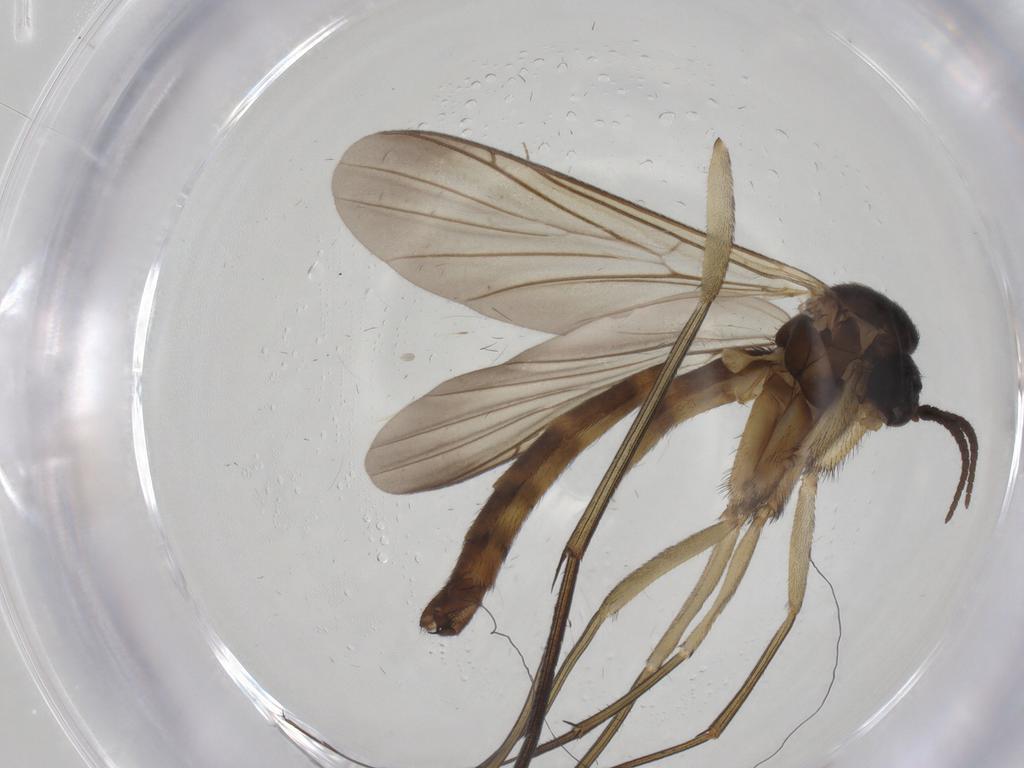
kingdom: Animalia
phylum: Arthropoda
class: Insecta
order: Diptera
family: Keroplatidae
